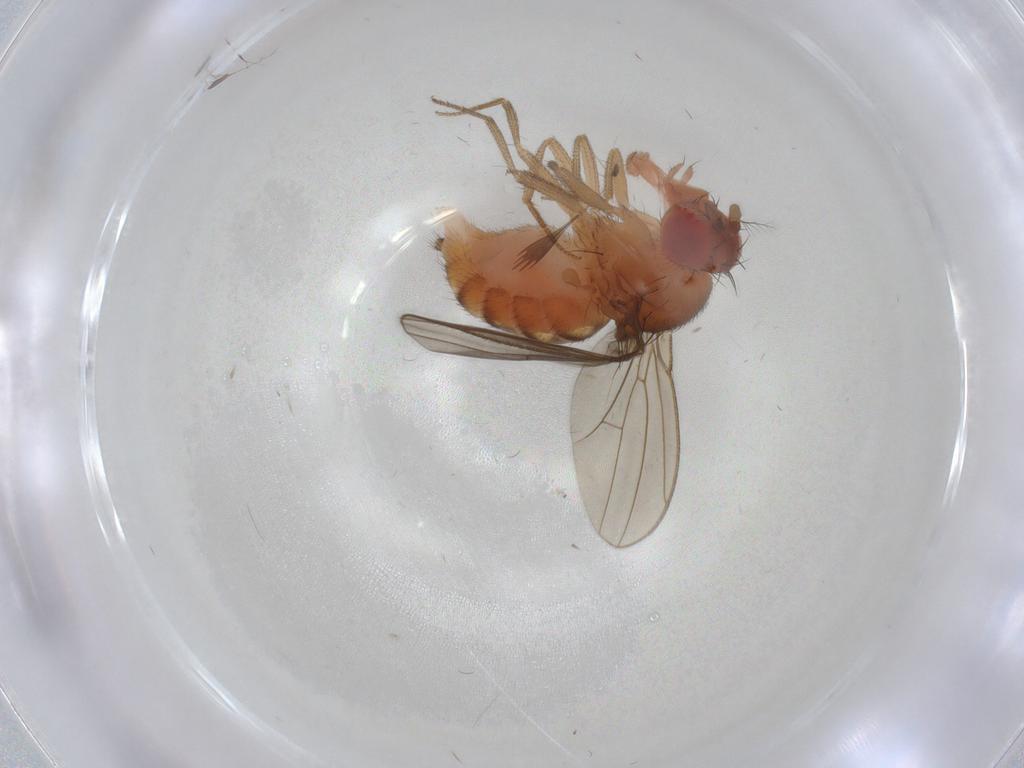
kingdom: Animalia
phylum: Arthropoda
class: Insecta
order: Diptera
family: Drosophilidae
